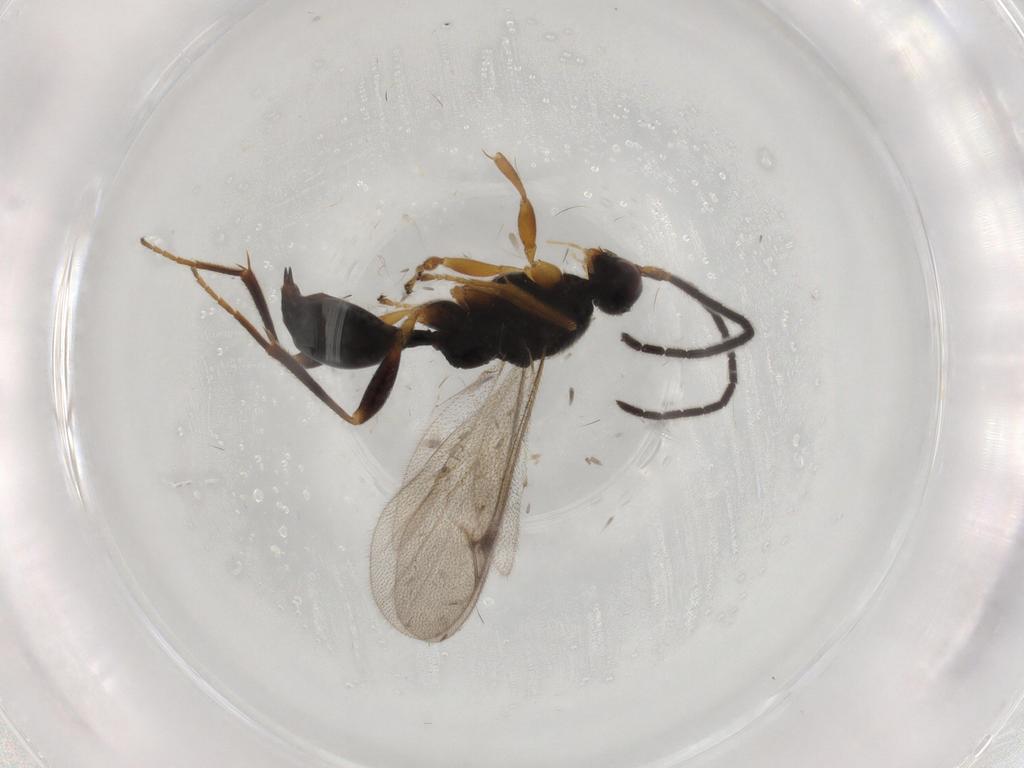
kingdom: Animalia
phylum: Arthropoda
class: Insecta
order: Hymenoptera
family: Proctotrupidae
